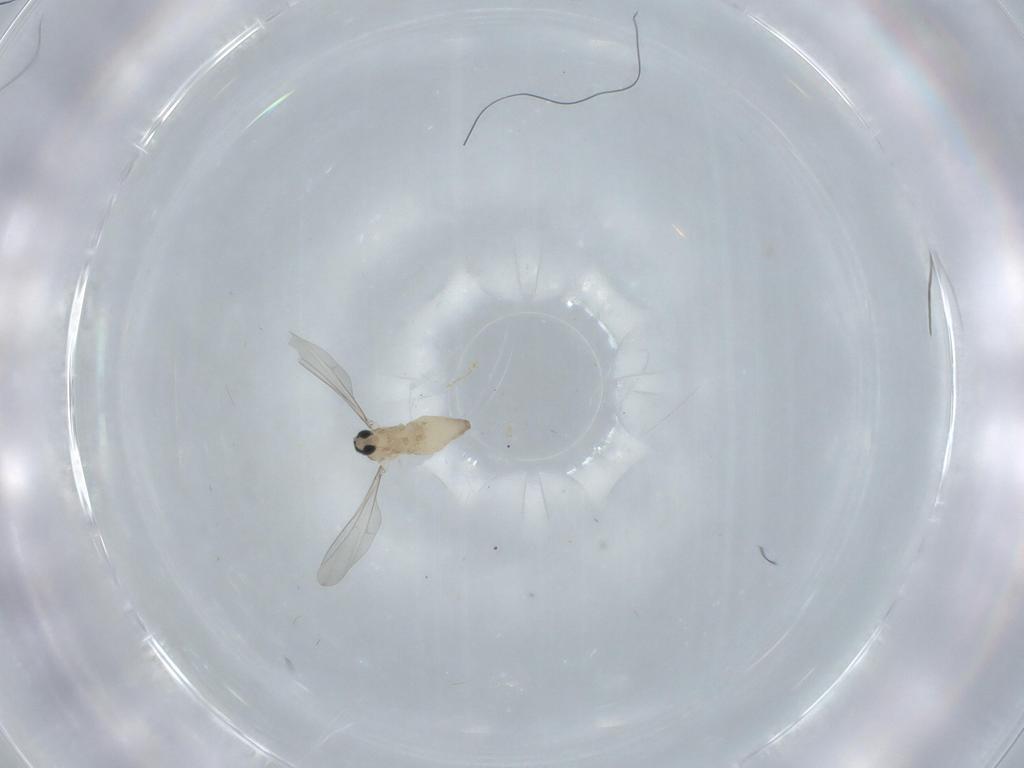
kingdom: Animalia
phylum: Arthropoda
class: Insecta
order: Diptera
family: Cecidomyiidae
